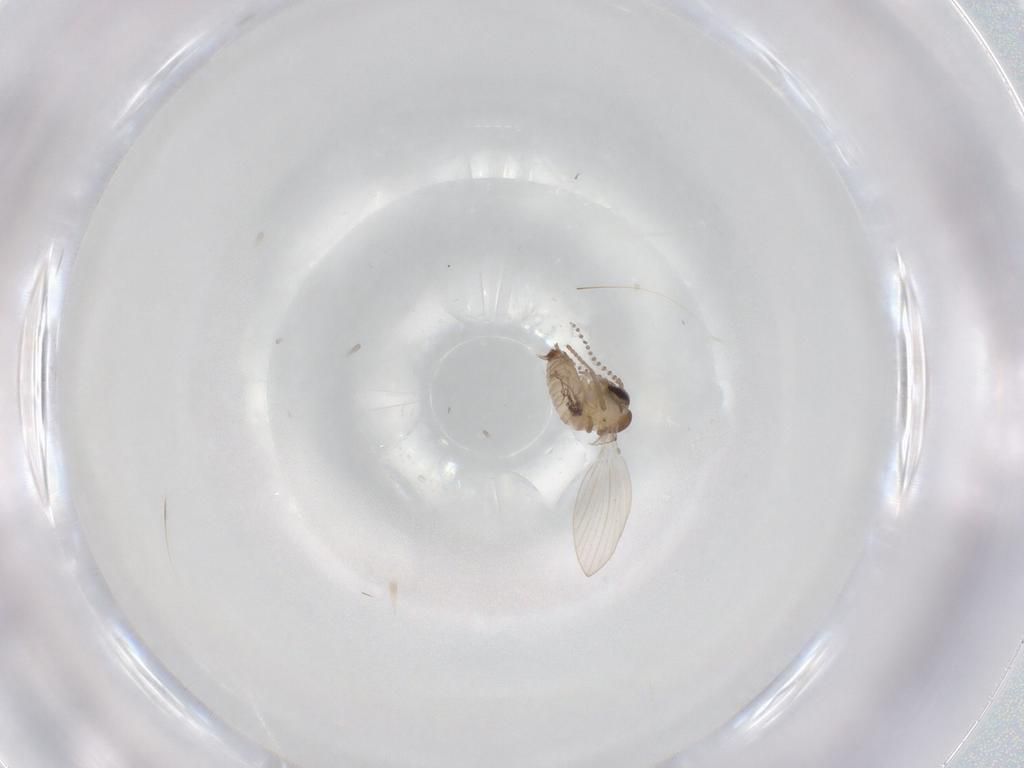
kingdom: Animalia
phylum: Arthropoda
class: Insecta
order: Diptera
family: Psychodidae
